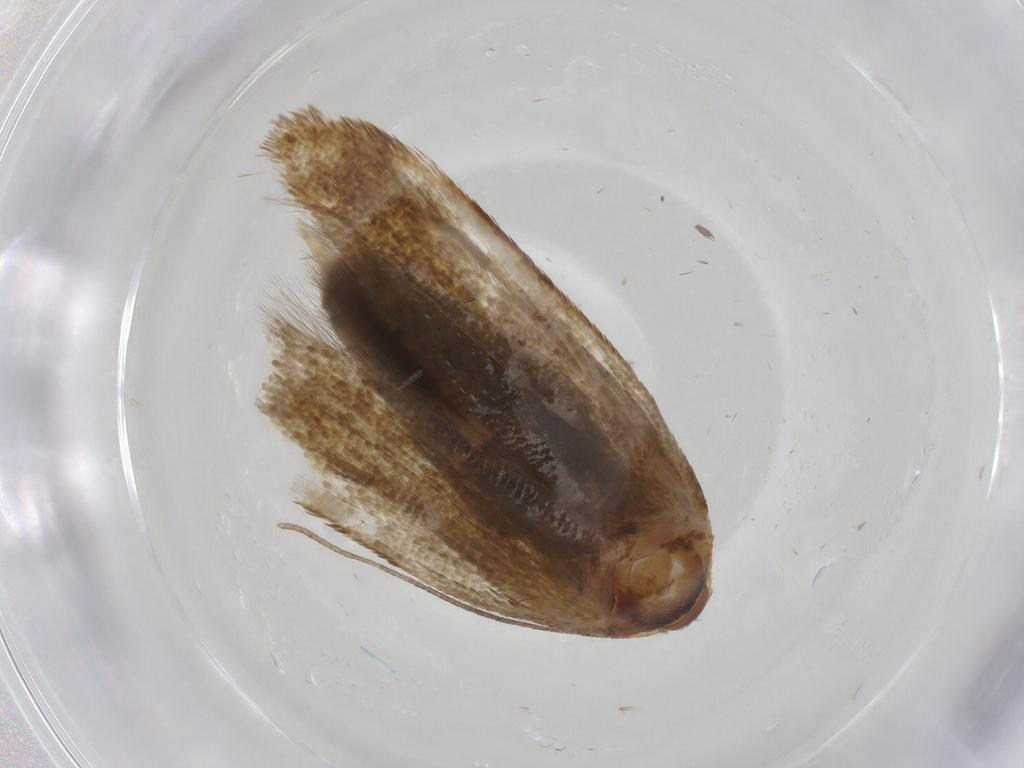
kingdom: Animalia
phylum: Arthropoda
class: Insecta
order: Lepidoptera
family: Blastobasidae
